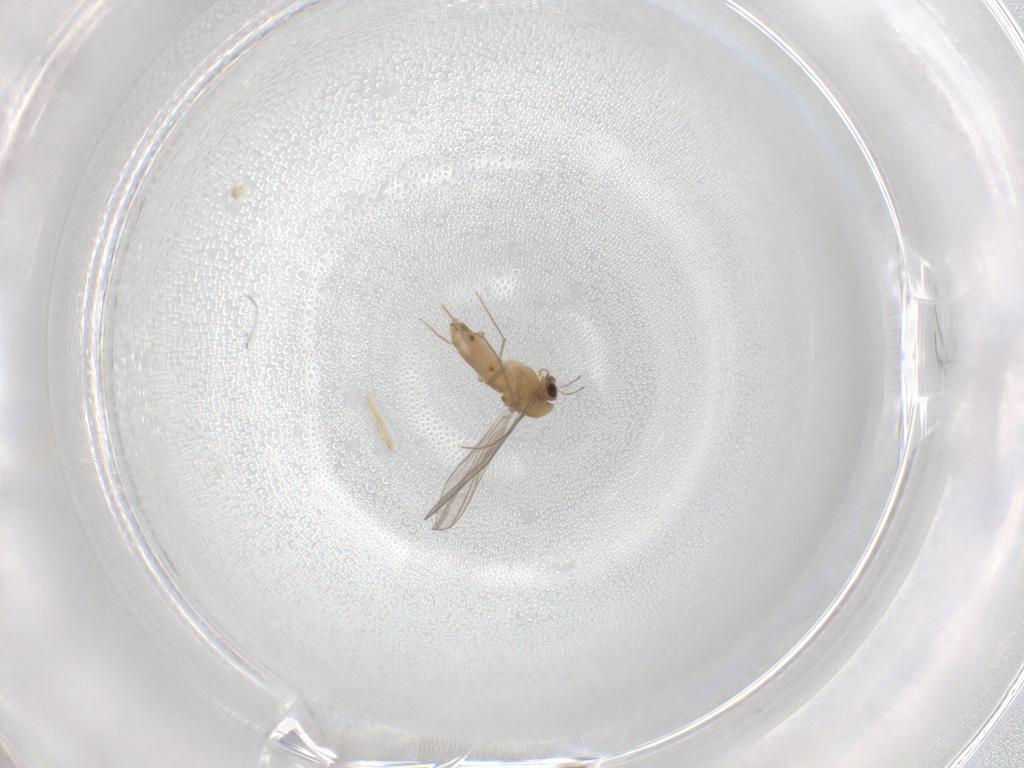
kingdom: Animalia
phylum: Arthropoda
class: Insecta
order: Diptera
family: Chironomidae
